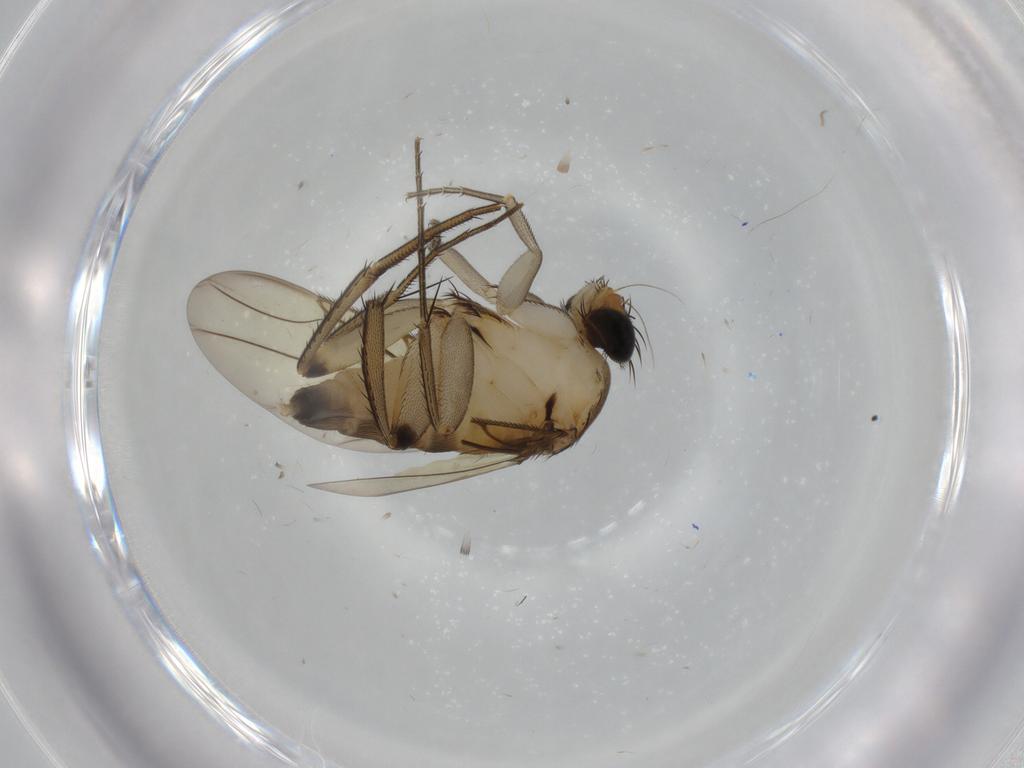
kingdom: Animalia
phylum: Arthropoda
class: Insecta
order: Diptera
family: Phoridae
